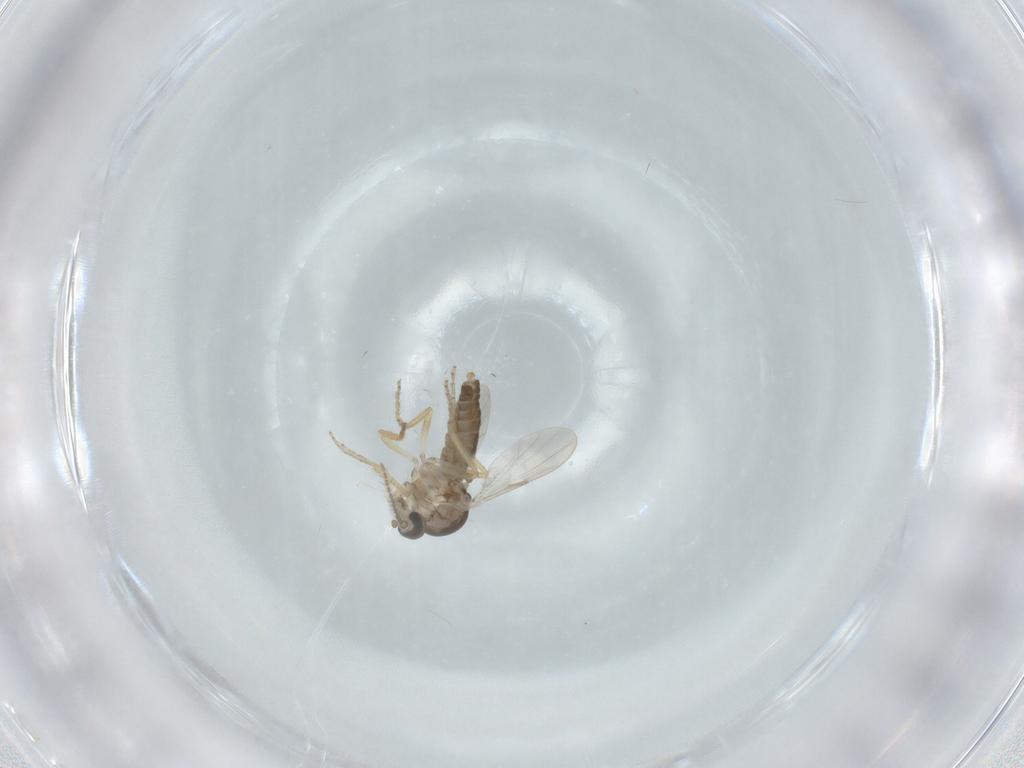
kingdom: Animalia
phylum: Arthropoda
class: Insecta
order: Diptera
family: Ceratopogonidae
